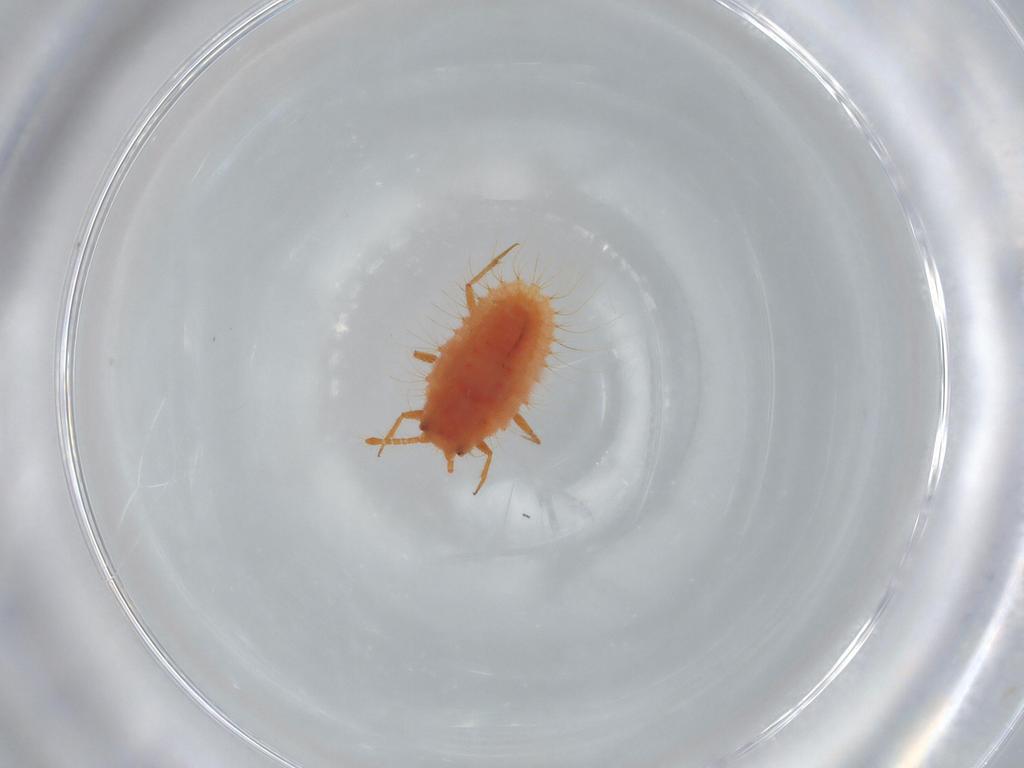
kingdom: Animalia
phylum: Arthropoda
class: Insecta
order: Hemiptera
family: Coccoidea_incertae_sedis
